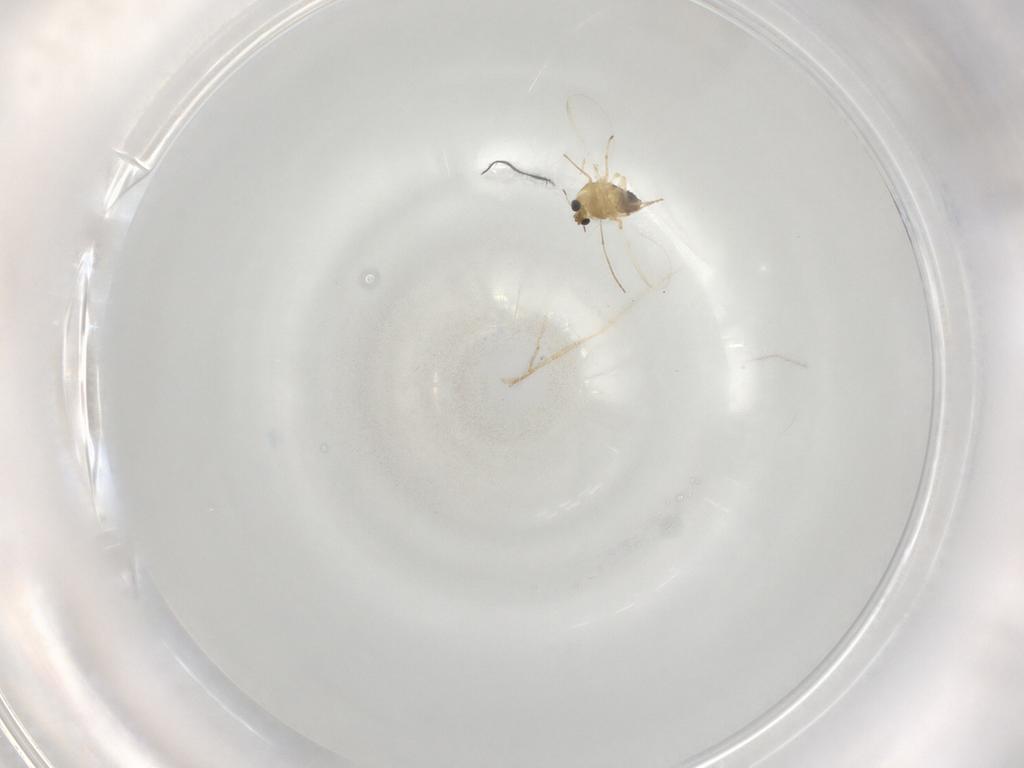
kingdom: Animalia
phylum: Arthropoda
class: Insecta
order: Diptera
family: Chironomidae
